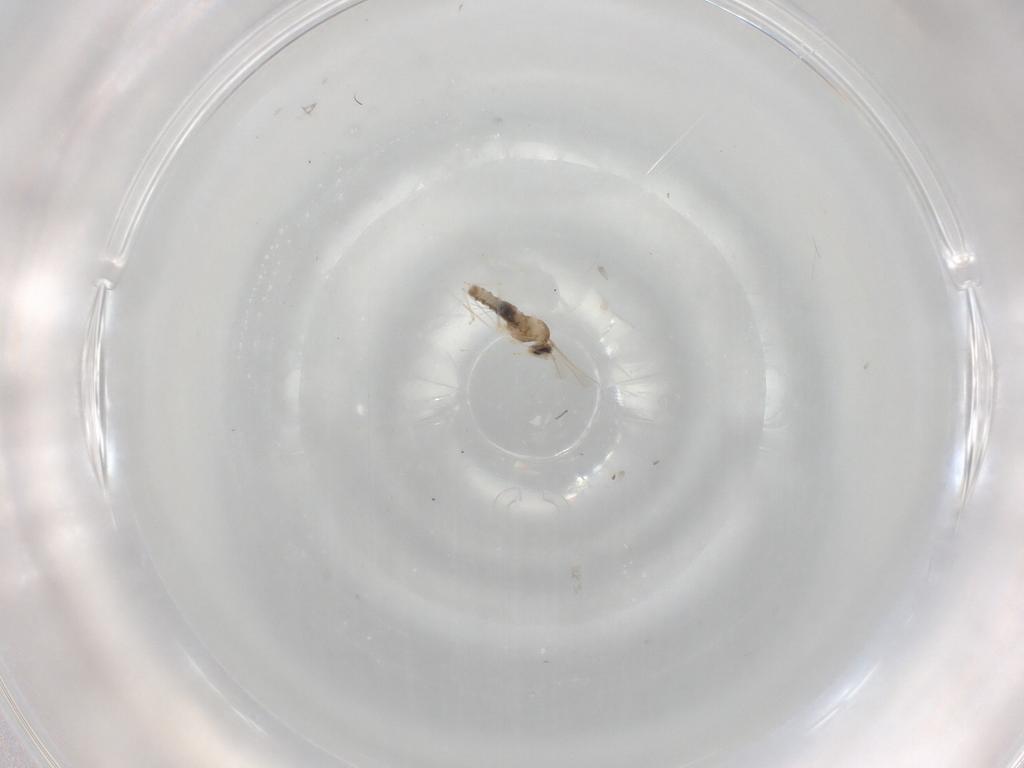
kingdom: Animalia
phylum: Arthropoda
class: Insecta
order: Diptera
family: Cecidomyiidae
